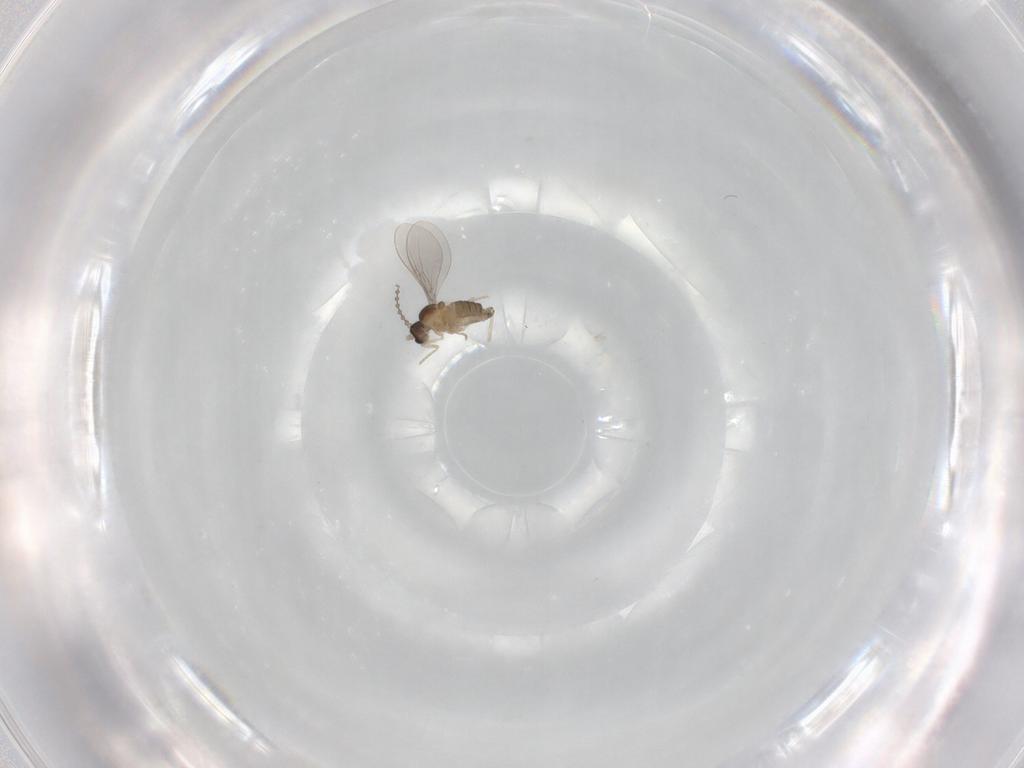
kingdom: Animalia
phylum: Arthropoda
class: Insecta
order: Diptera
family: Cecidomyiidae
